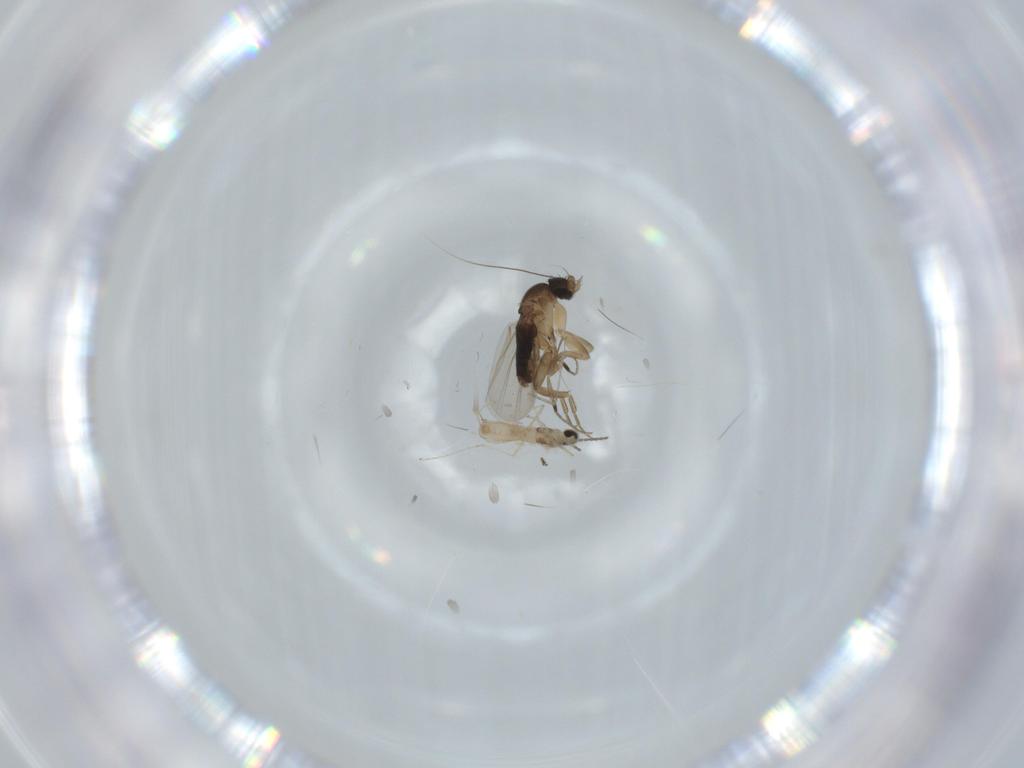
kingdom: Animalia
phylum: Arthropoda
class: Insecta
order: Diptera
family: Cecidomyiidae
